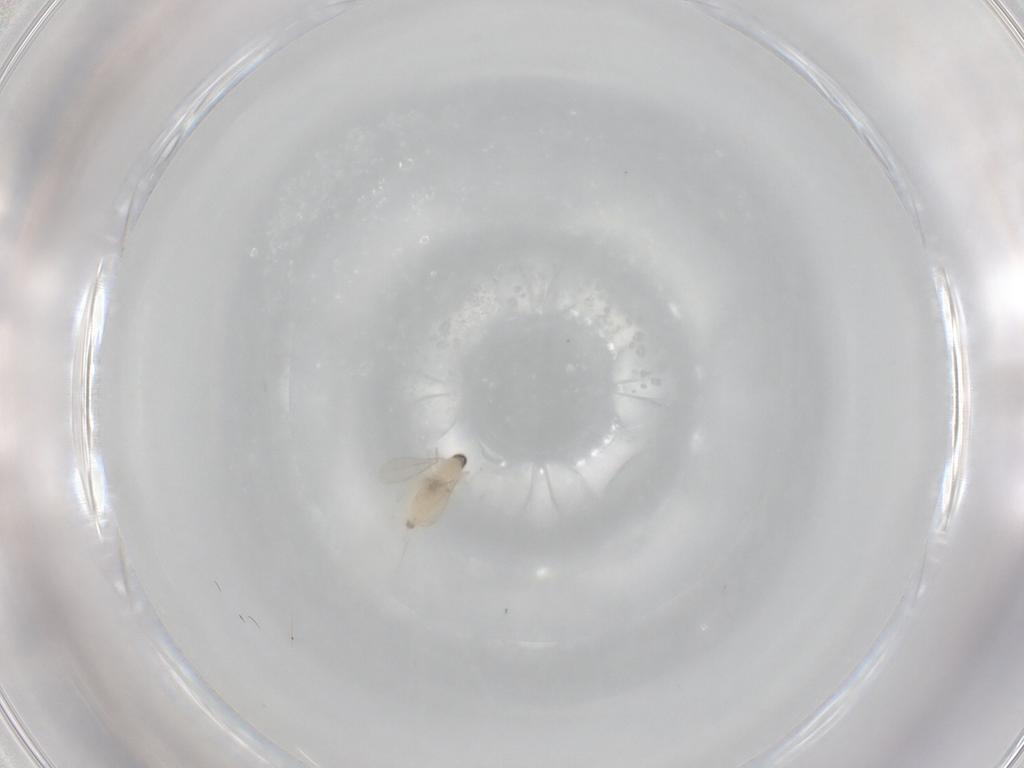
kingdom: Animalia
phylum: Arthropoda
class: Insecta
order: Diptera
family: Cecidomyiidae
